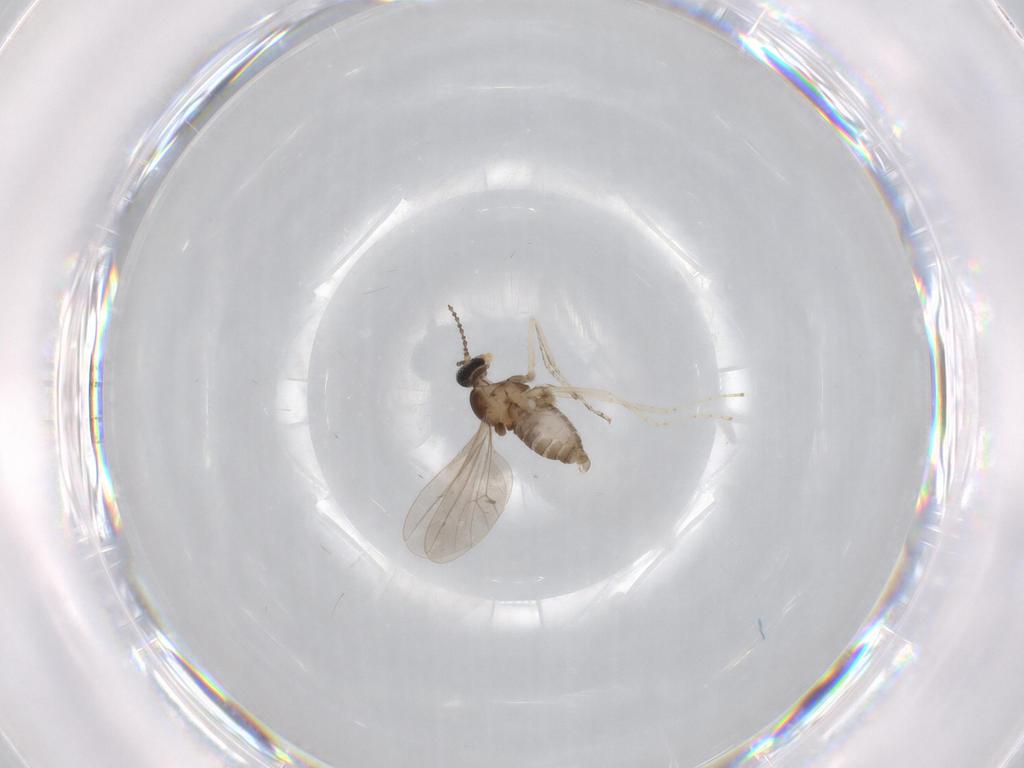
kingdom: Animalia
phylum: Arthropoda
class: Insecta
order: Diptera
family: Cecidomyiidae
